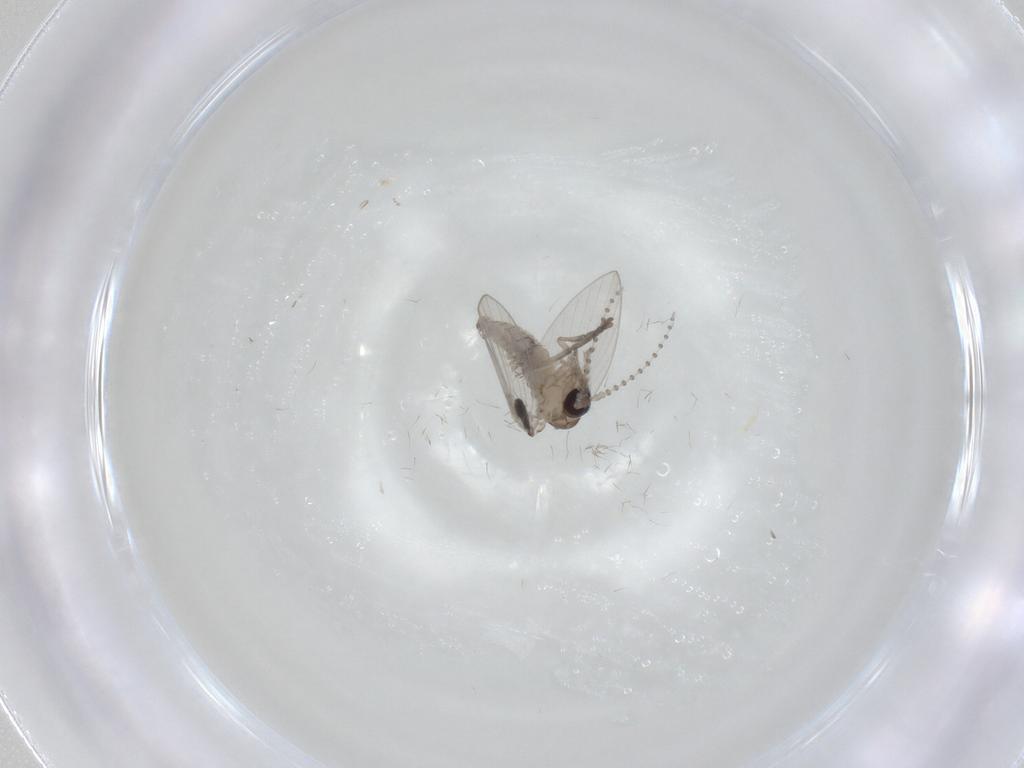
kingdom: Animalia
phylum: Arthropoda
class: Insecta
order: Diptera
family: Psychodidae
